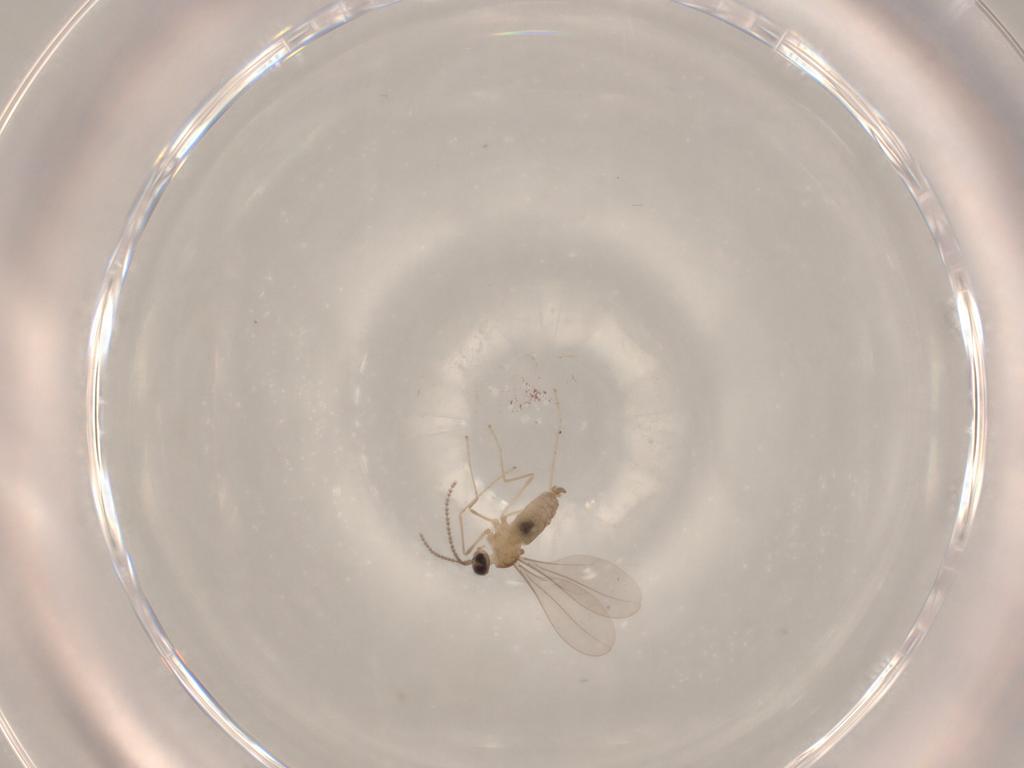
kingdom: Animalia
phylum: Arthropoda
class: Insecta
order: Diptera
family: Cecidomyiidae
